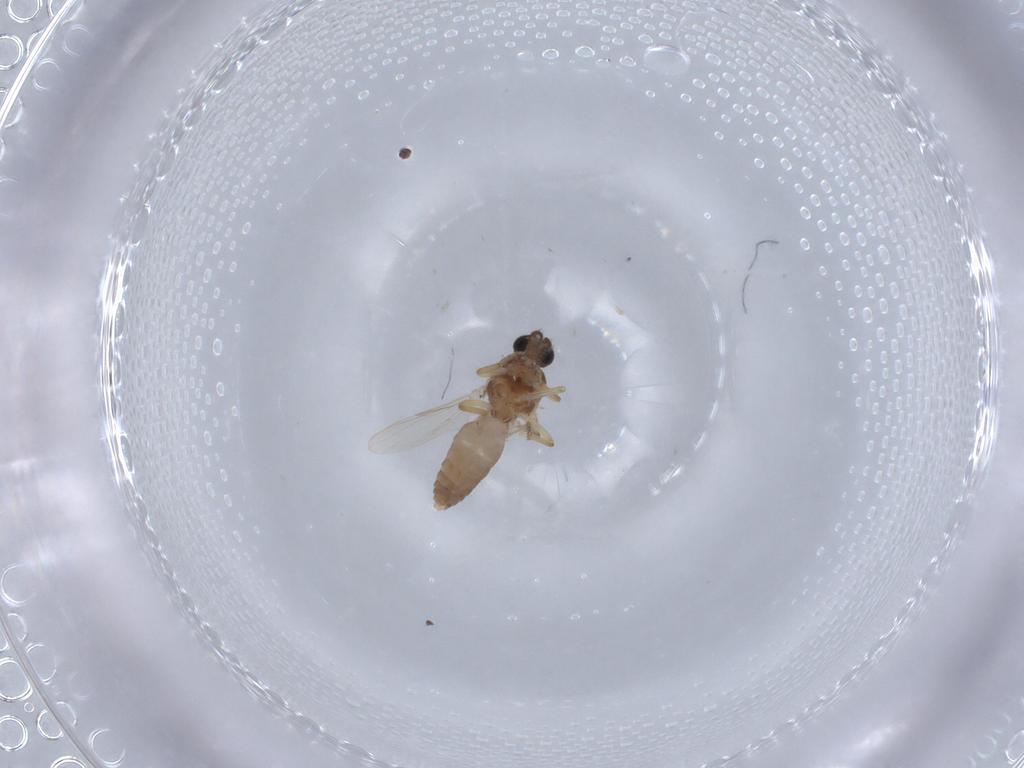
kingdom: Animalia
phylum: Arthropoda
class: Insecta
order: Diptera
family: Ceratopogonidae
